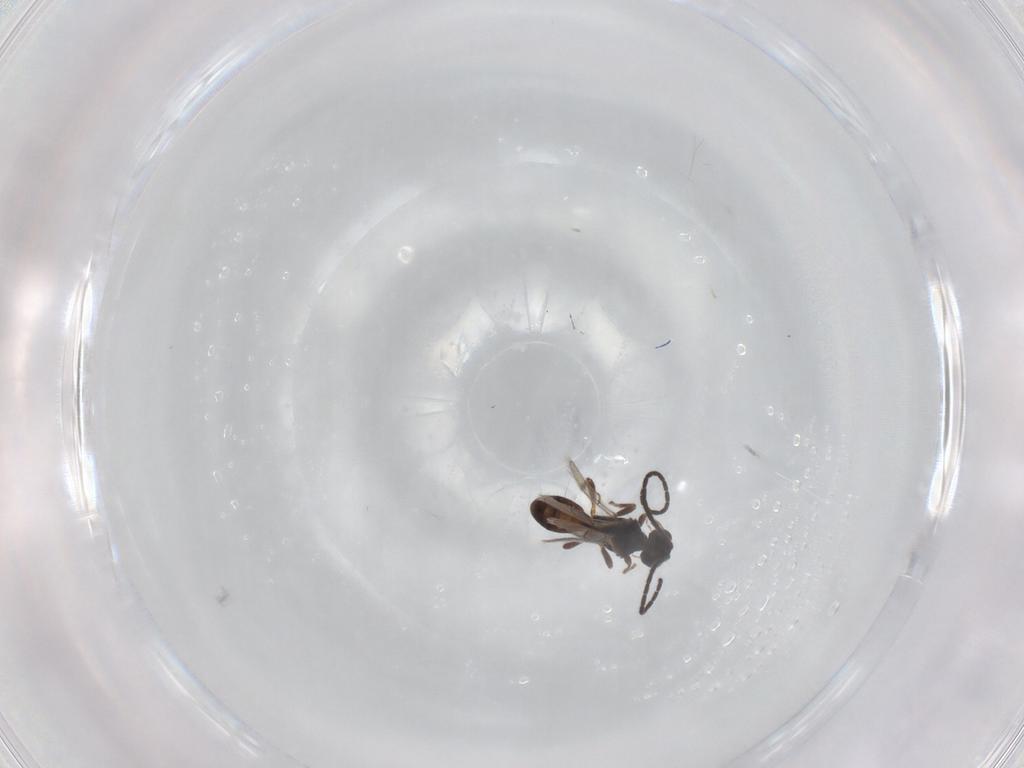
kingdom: Animalia
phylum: Arthropoda
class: Insecta
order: Hymenoptera
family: Braconidae
